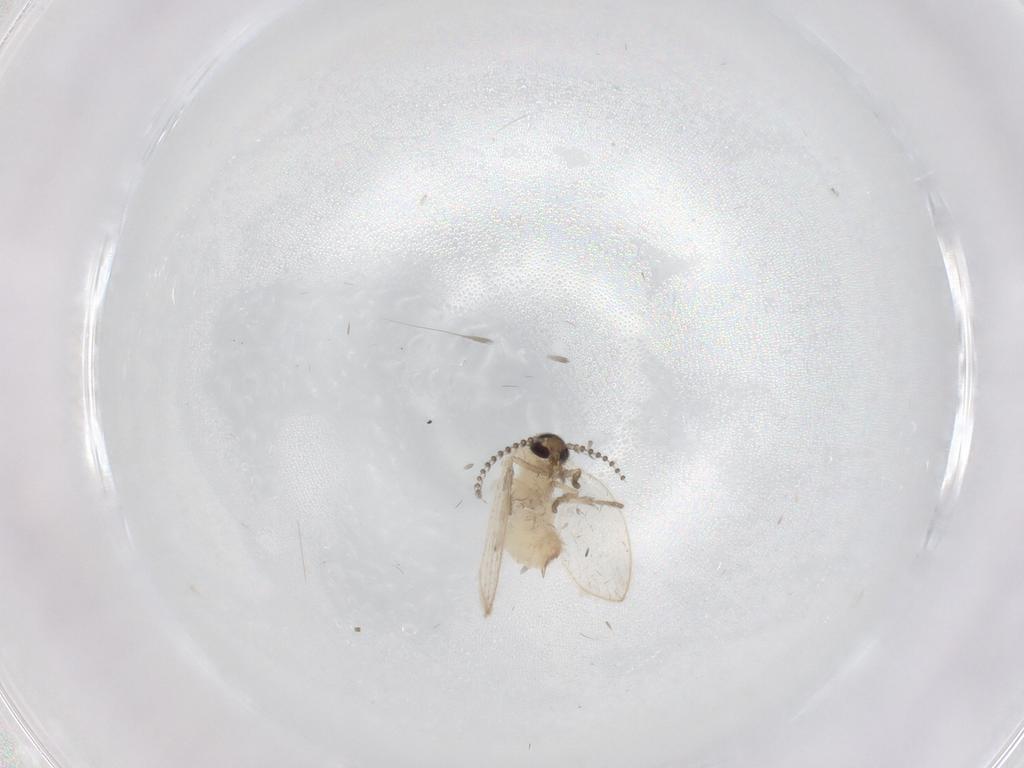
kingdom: Animalia
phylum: Arthropoda
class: Insecta
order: Diptera
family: Psychodidae
